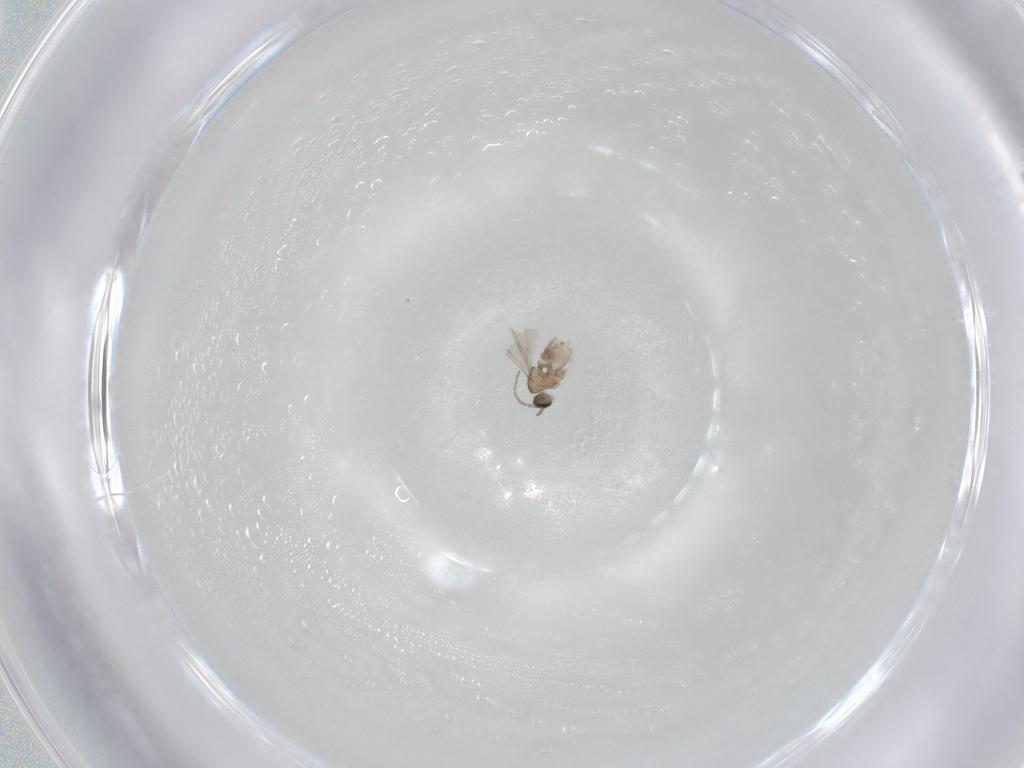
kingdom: Animalia
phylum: Arthropoda
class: Insecta
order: Diptera
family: Cecidomyiidae
